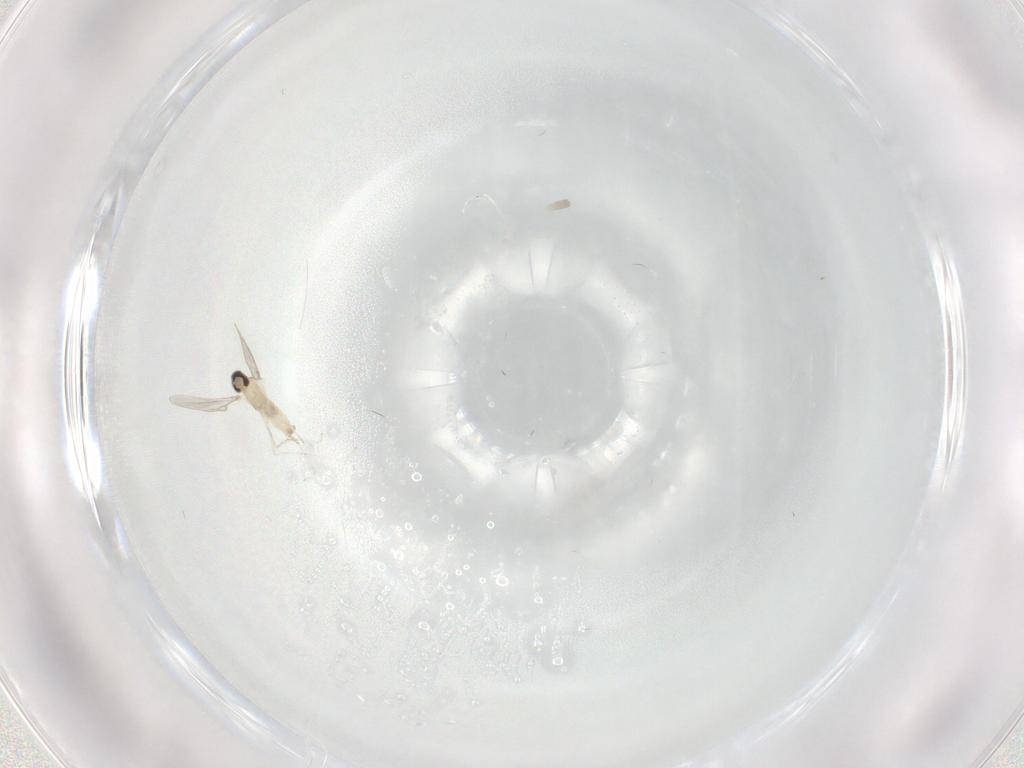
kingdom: Animalia
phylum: Arthropoda
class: Insecta
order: Diptera
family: Cecidomyiidae
